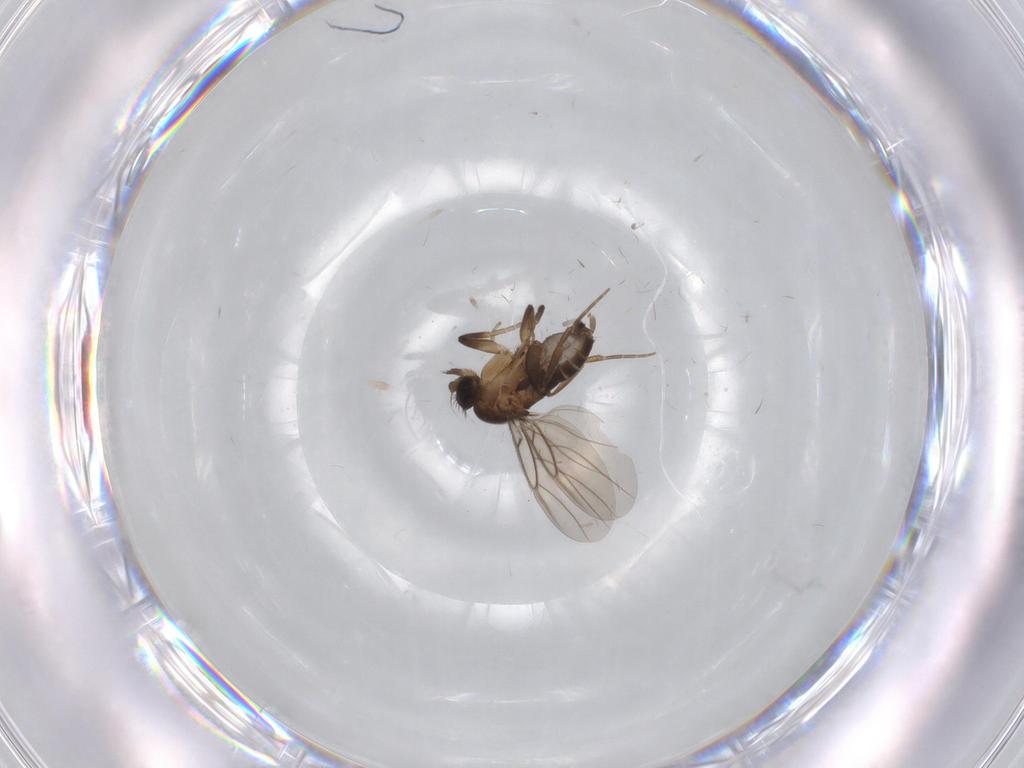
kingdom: Animalia
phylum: Arthropoda
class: Insecta
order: Diptera
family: Phoridae
